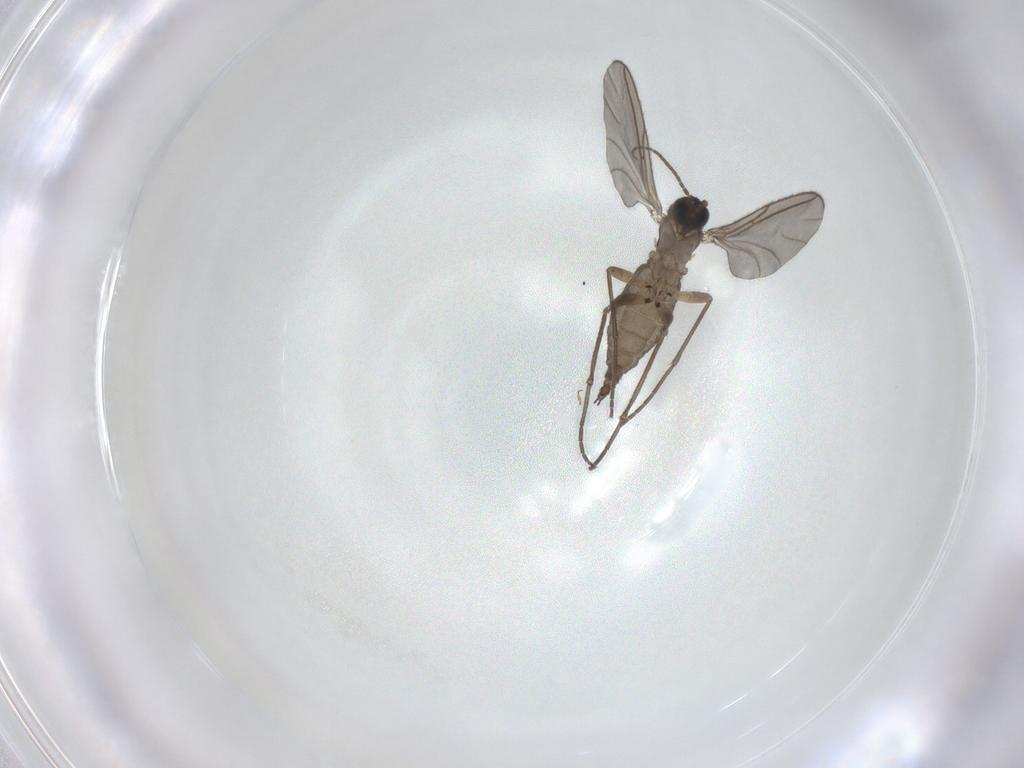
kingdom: Animalia
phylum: Arthropoda
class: Insecta
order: Diptera
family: Sciaridae
